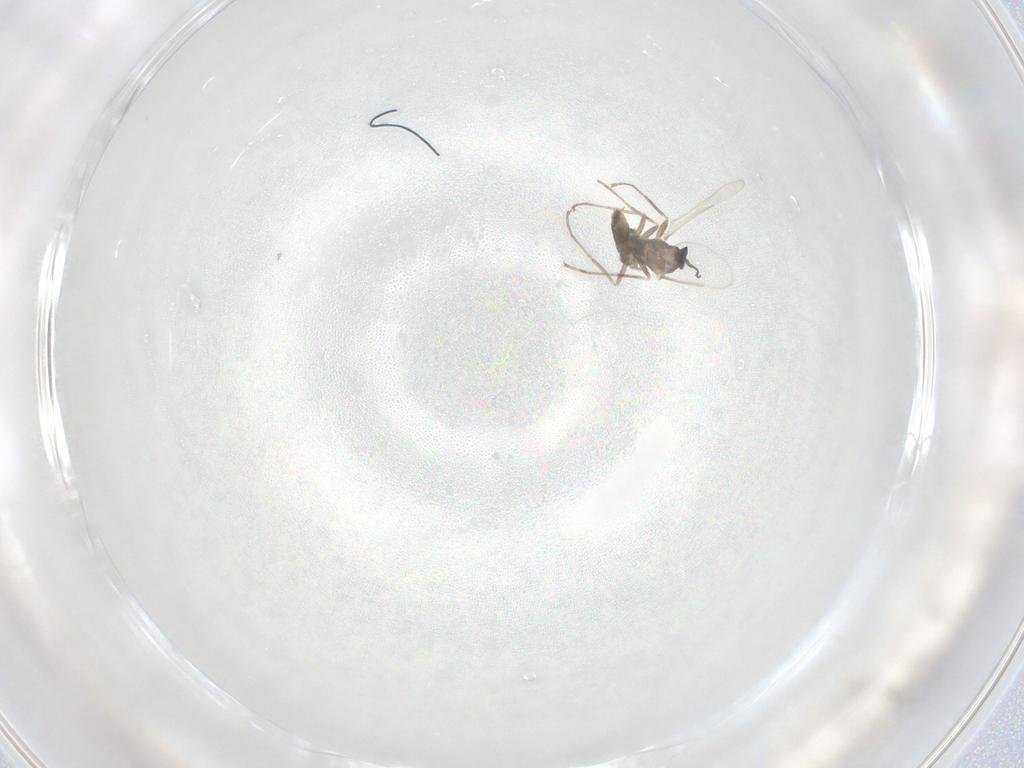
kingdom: Animalia
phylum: Arthropoda
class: Insecta
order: Diptera
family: Cecidomyiidae
